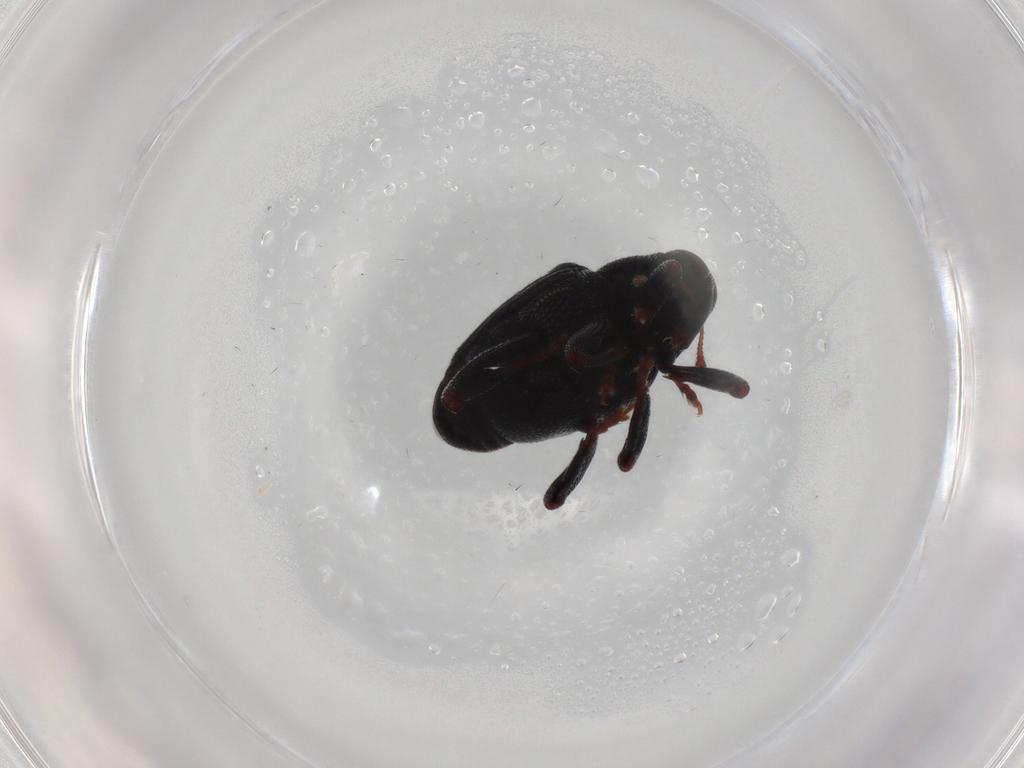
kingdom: Animalia
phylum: Arthropoda
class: Insecta
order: Coleoptera
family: Curculionidae
